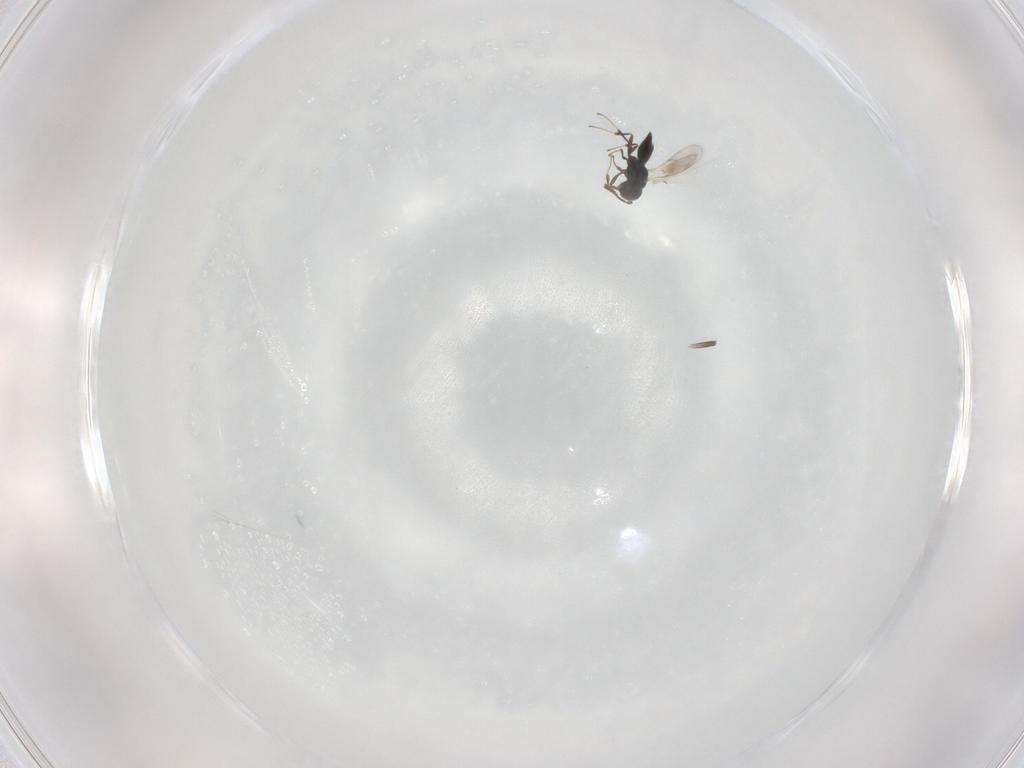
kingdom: Animalia
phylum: Arthropoda
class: Insecta
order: Hymenoptera
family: Scelionidae
